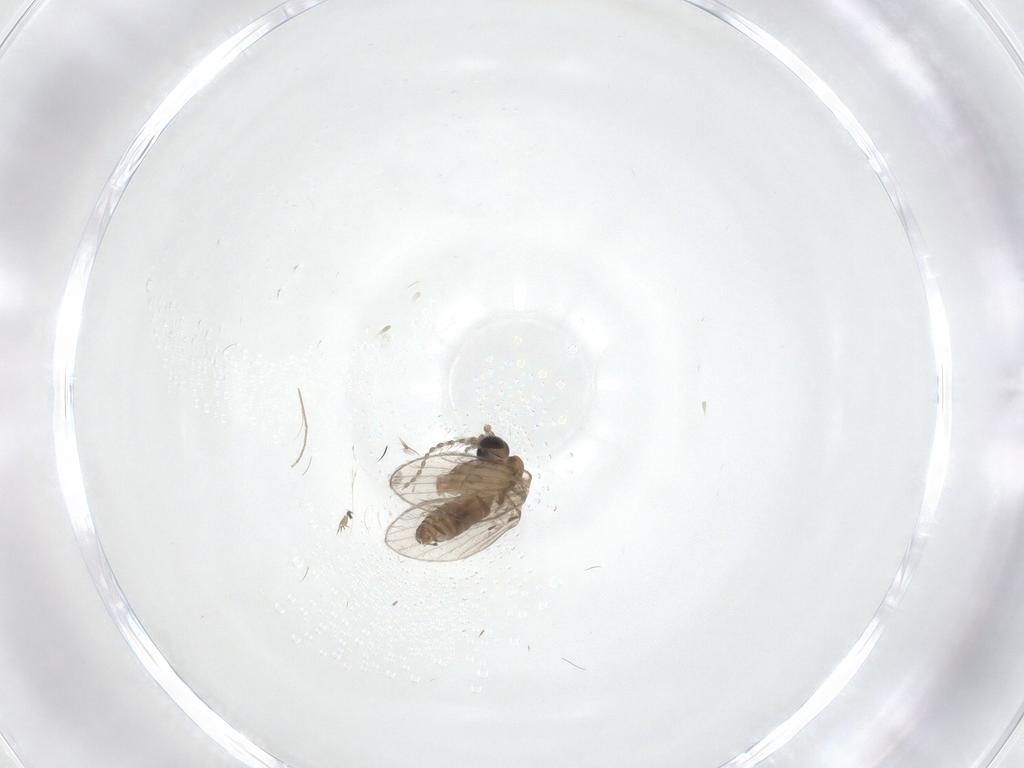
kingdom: Animalia
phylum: Arthropoda
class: Insecta
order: Diptera
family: Chironomidae
